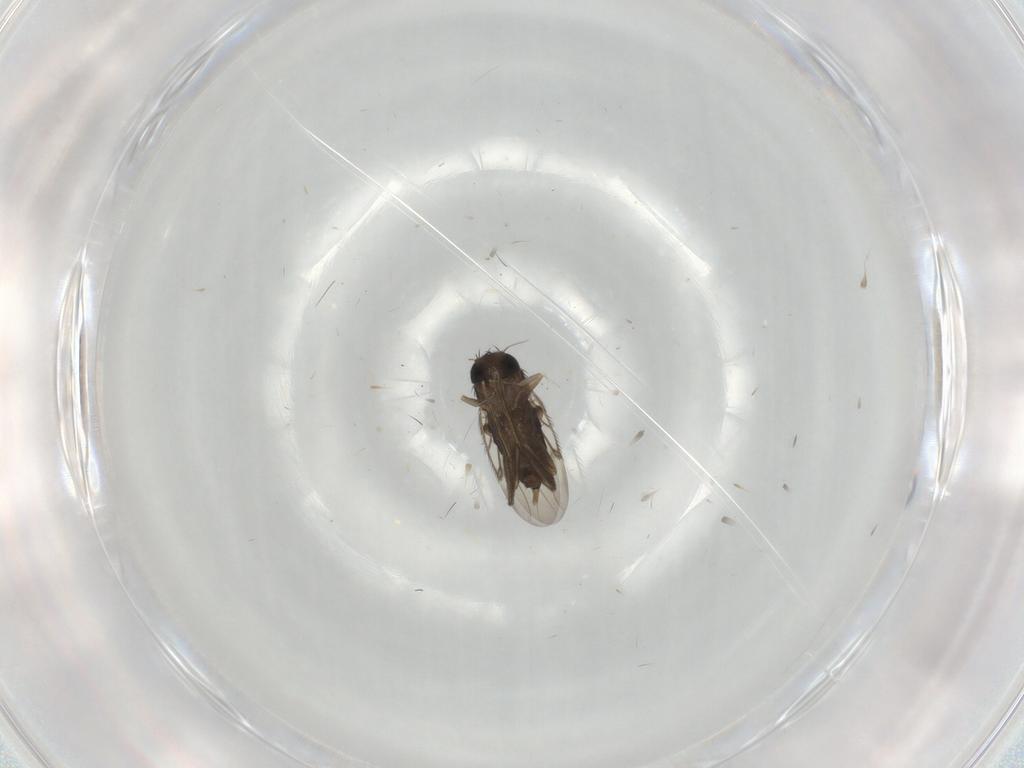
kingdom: Animalia
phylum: Arthropoda
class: Insecta
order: Diptera
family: Phoridae
